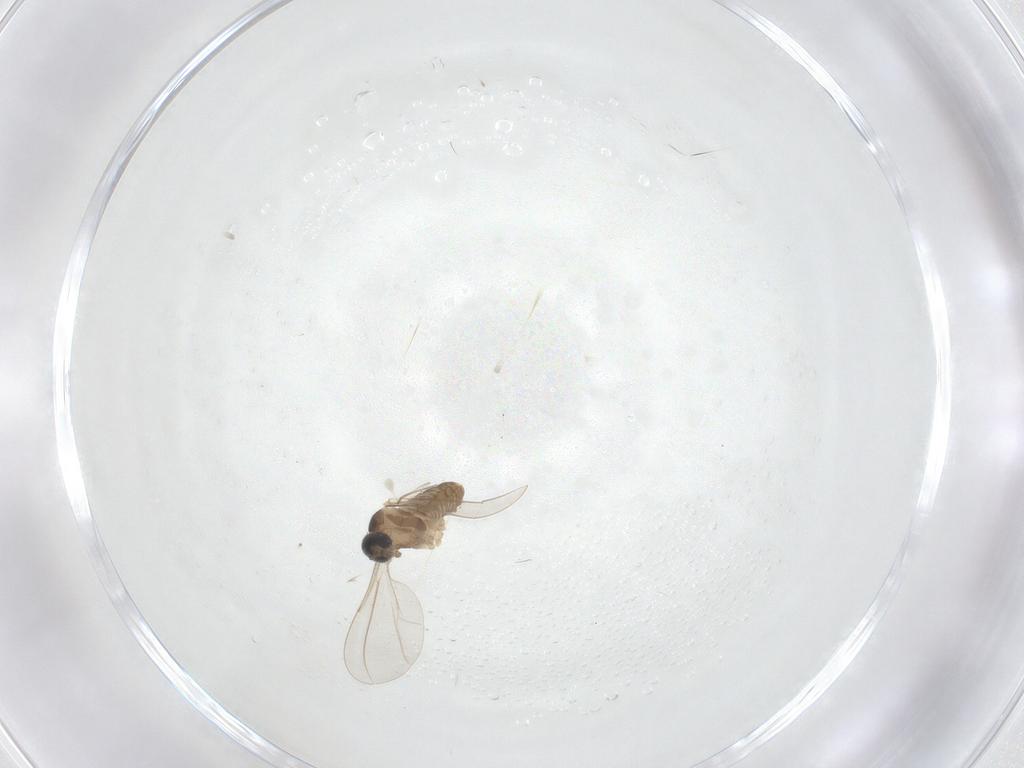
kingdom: Animalia
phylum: Arthropoda
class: Insecta
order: Diptera
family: Cecidomyiidae
